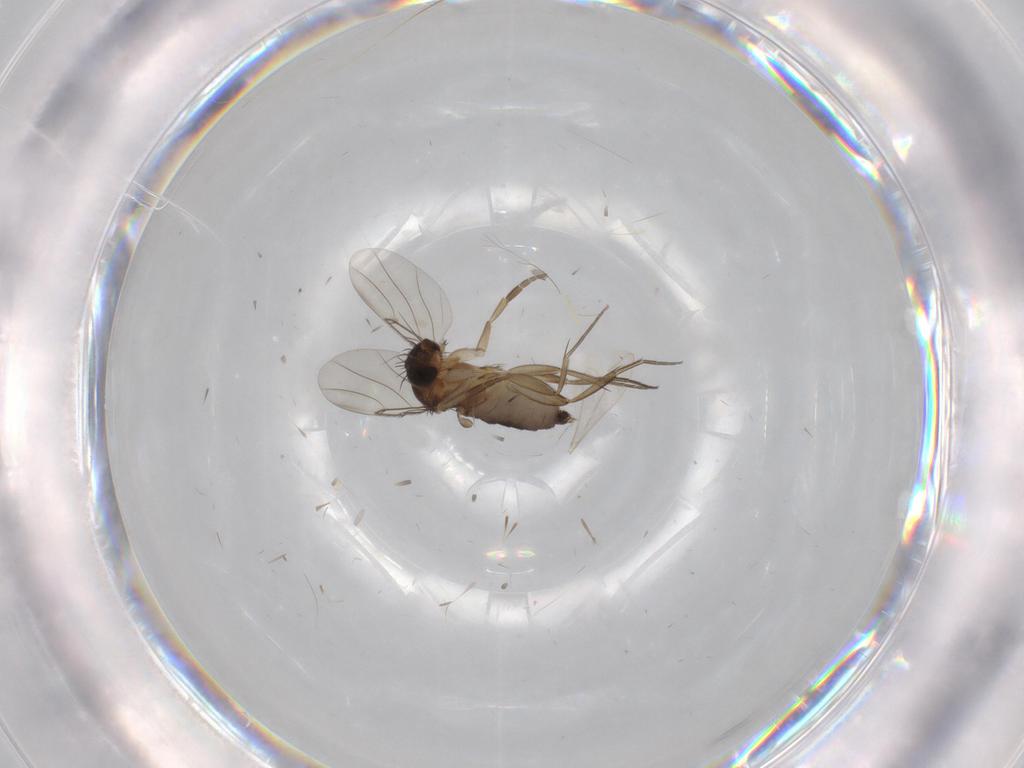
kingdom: Animalia
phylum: Arthropoda
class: Insecta
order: Diptera
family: Phoridae
